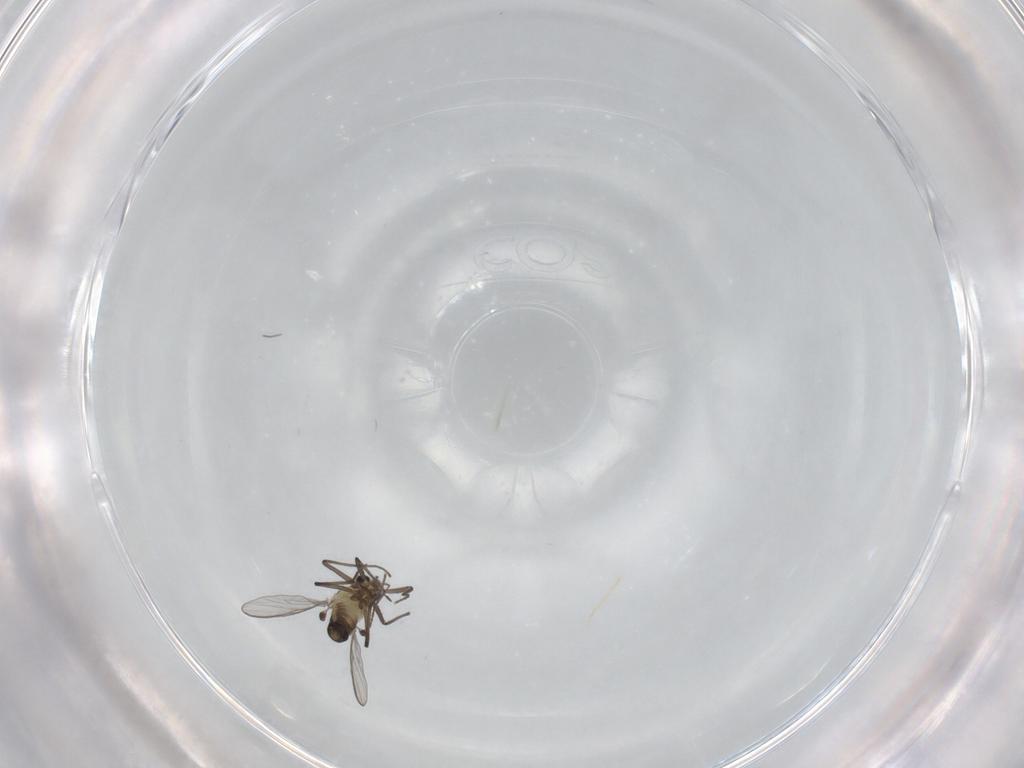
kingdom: Animalia
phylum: Arthropoda
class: Insecta
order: Diptera
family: Chironomidae
